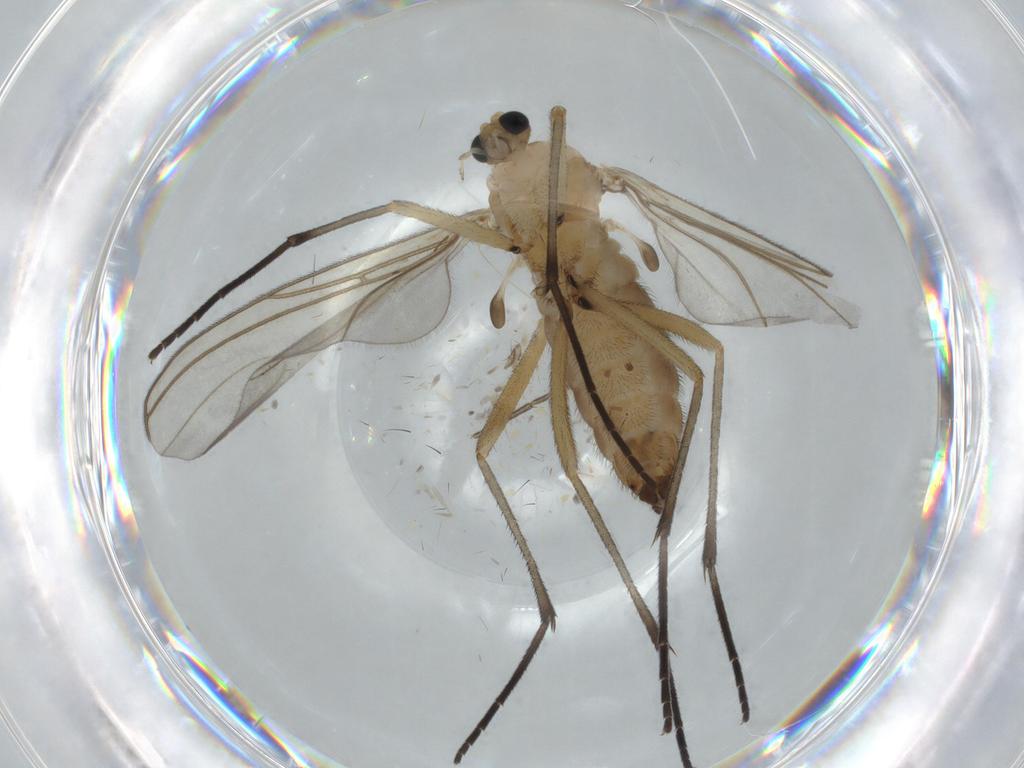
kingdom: Animalia
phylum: Arthropoda
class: Insecta
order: Diptera
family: Sciaridae
